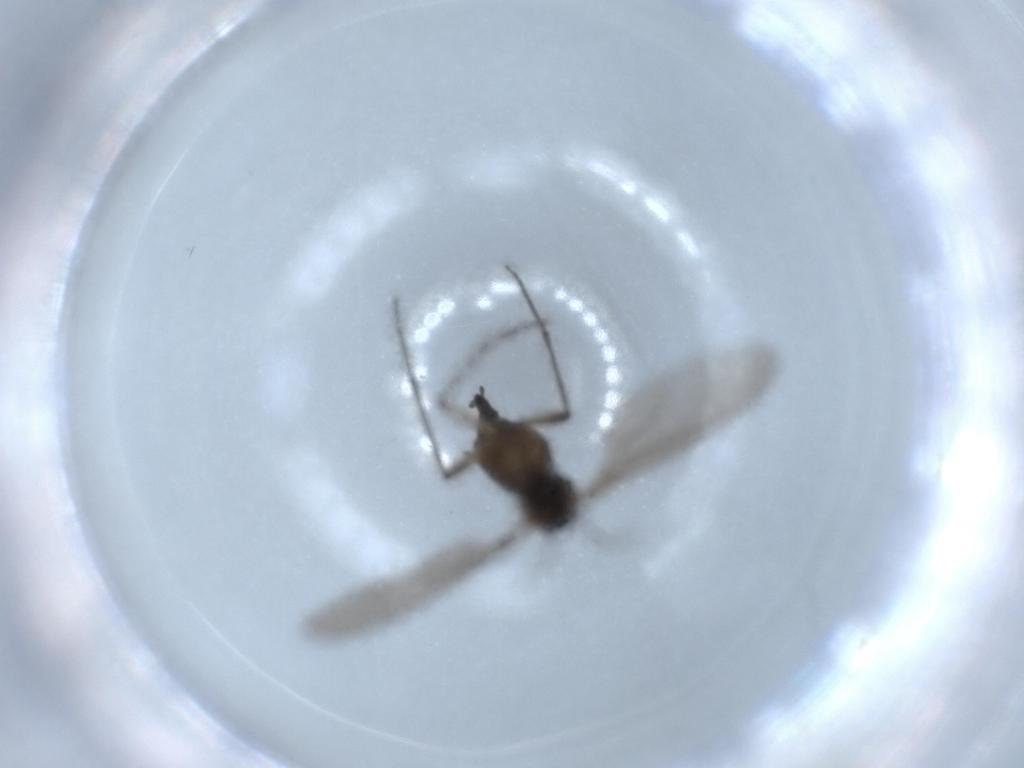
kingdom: Animalia
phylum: Arthropoda
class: Insecta
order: Diptera
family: Sciaridae
